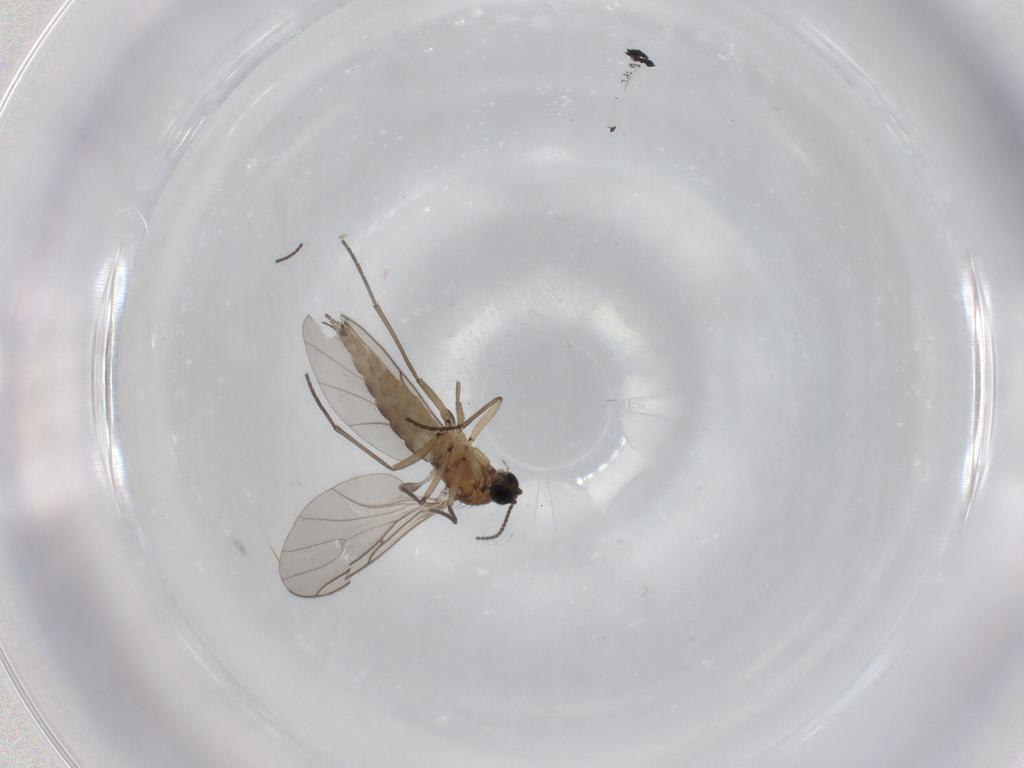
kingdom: Animalia
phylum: Arthropoda
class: Insecta
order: Diptera
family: Sciaridae
